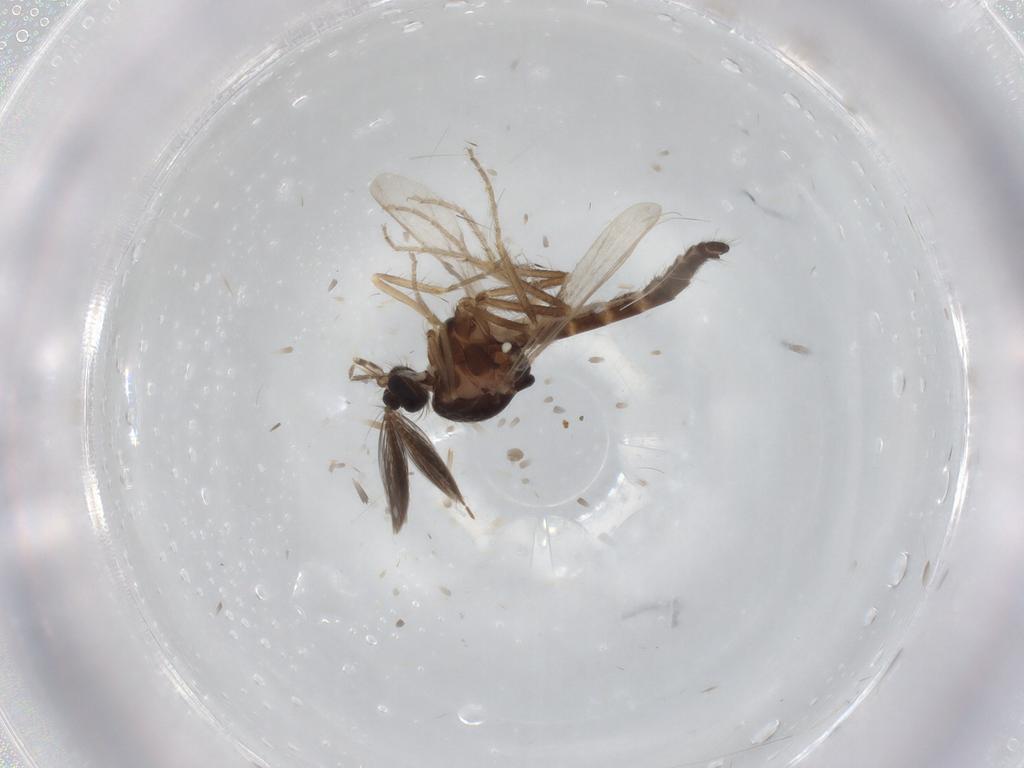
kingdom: Animalia
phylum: Arthropoda
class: Insecta
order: Diptera
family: Ceratopogonidae
